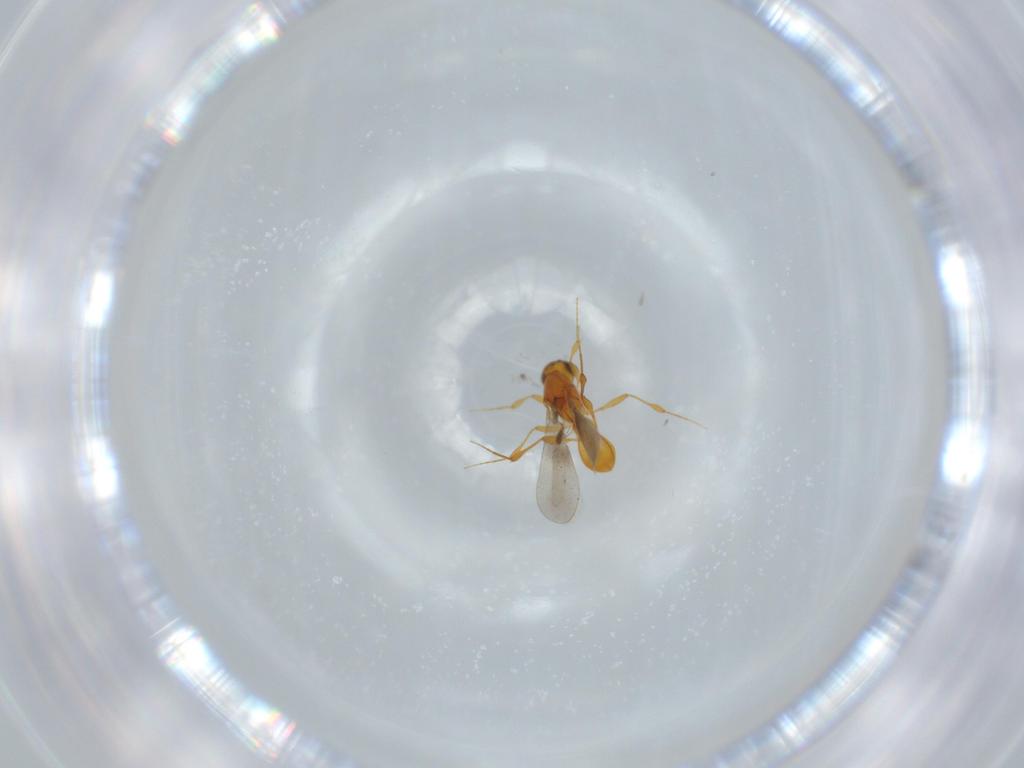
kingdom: Animalia
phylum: Arthropoda
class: Insecta
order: Hymenoptera
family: Platygastridae
